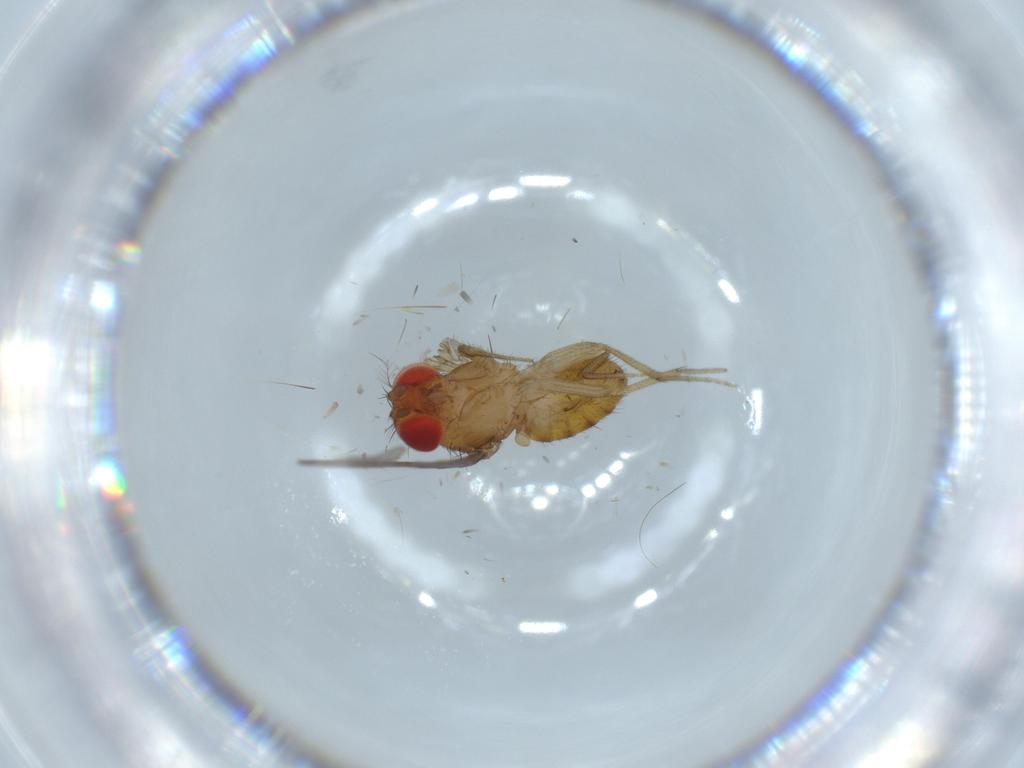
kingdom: Animalia
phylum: Arthropoda
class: Insecta
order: Diptera
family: Drosophilidae
